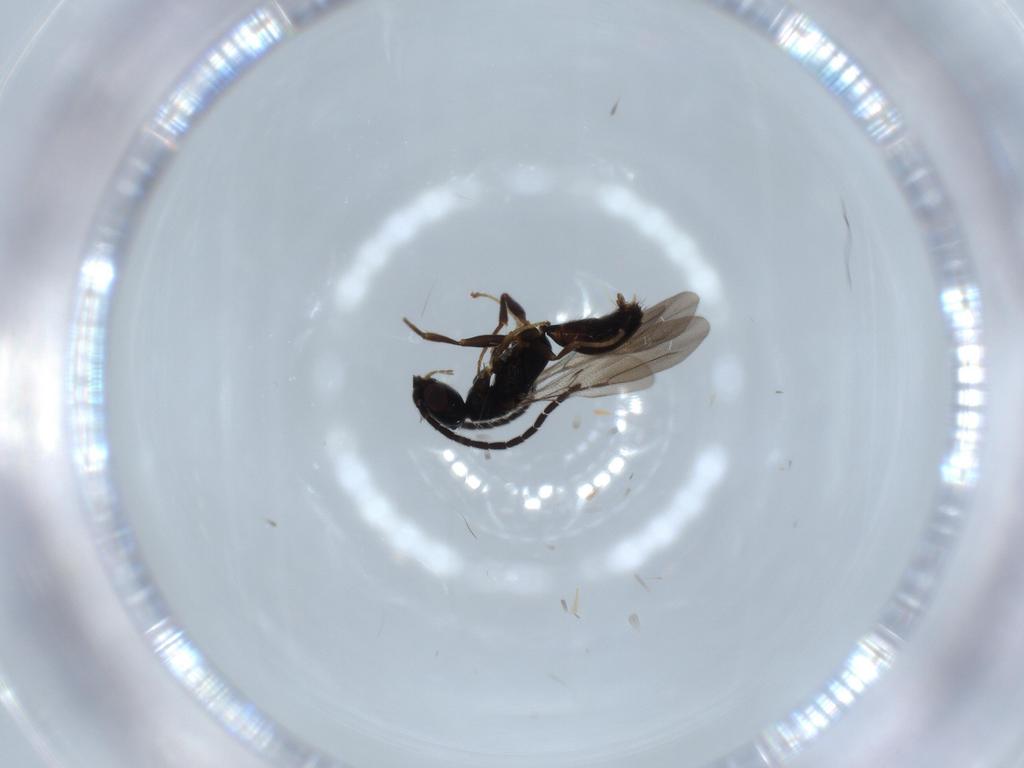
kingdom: Animalia
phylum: Arthropoda
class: Insecta
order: Hymenoptera
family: Bethylidae
